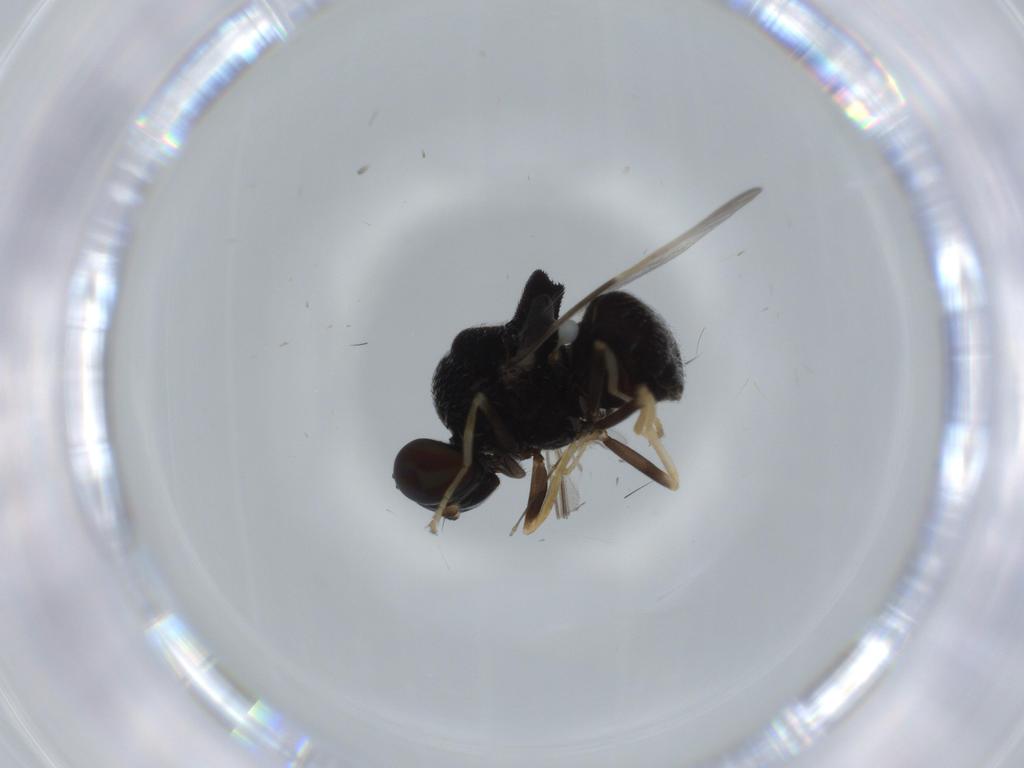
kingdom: Animalia
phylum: Arthropoda
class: Insecta
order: Diptera
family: Stratiomyidae
